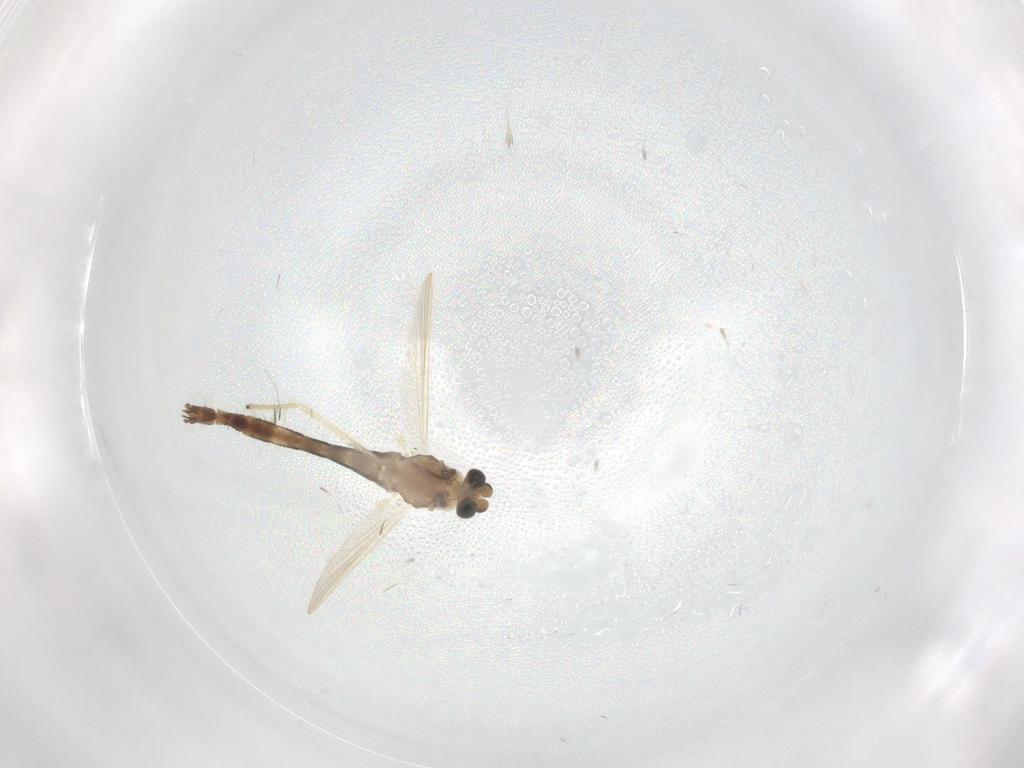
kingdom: Animalia
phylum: Arthropoda
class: Insecta
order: Diptera
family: Chironomidae
